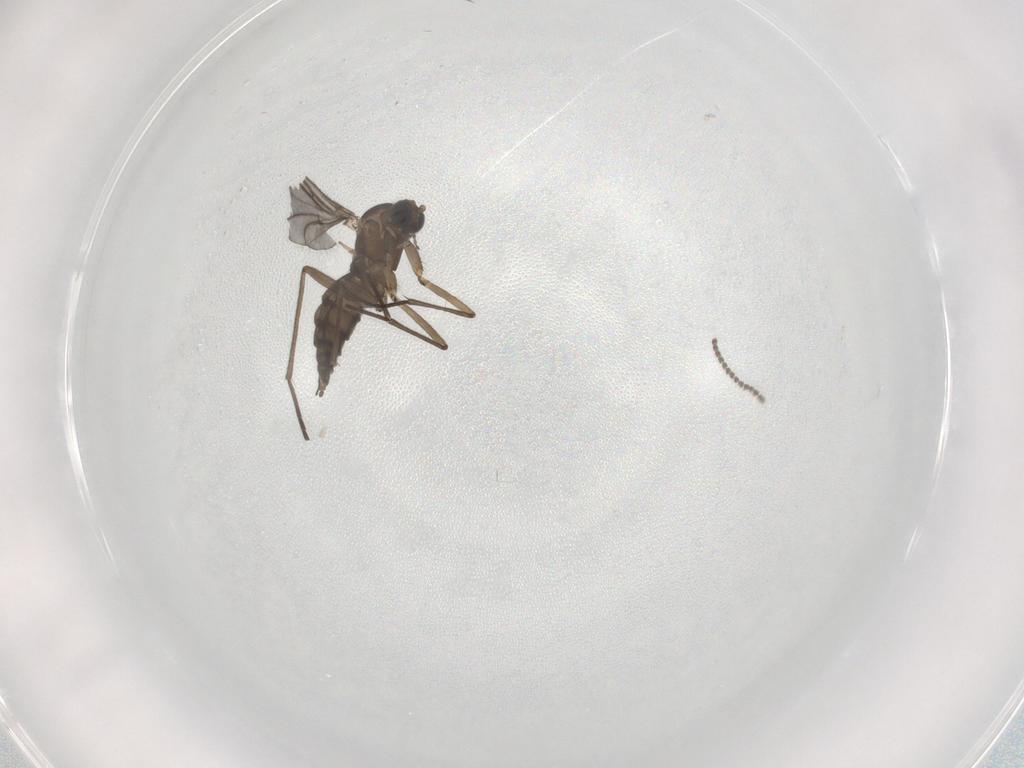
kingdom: Animalia
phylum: Arthropoda
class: Insecta
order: Diptera
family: Sciaridae
